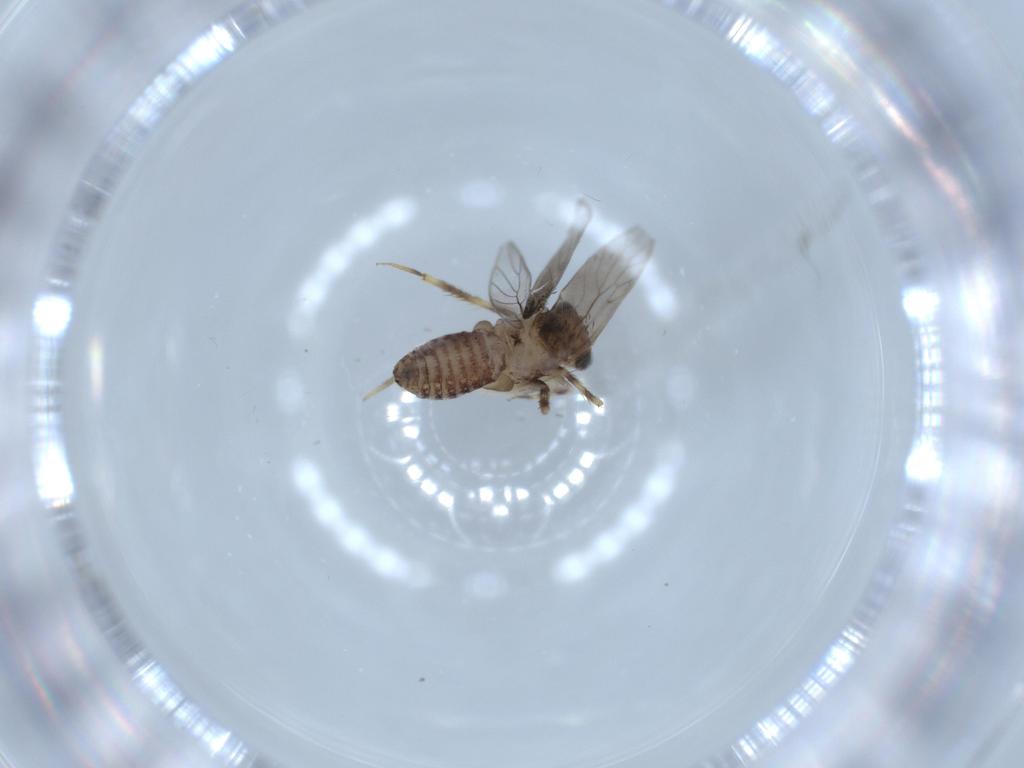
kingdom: Animalia
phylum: Arthropoda
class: Insecta
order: Psocodea
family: Lepidopsocidae
